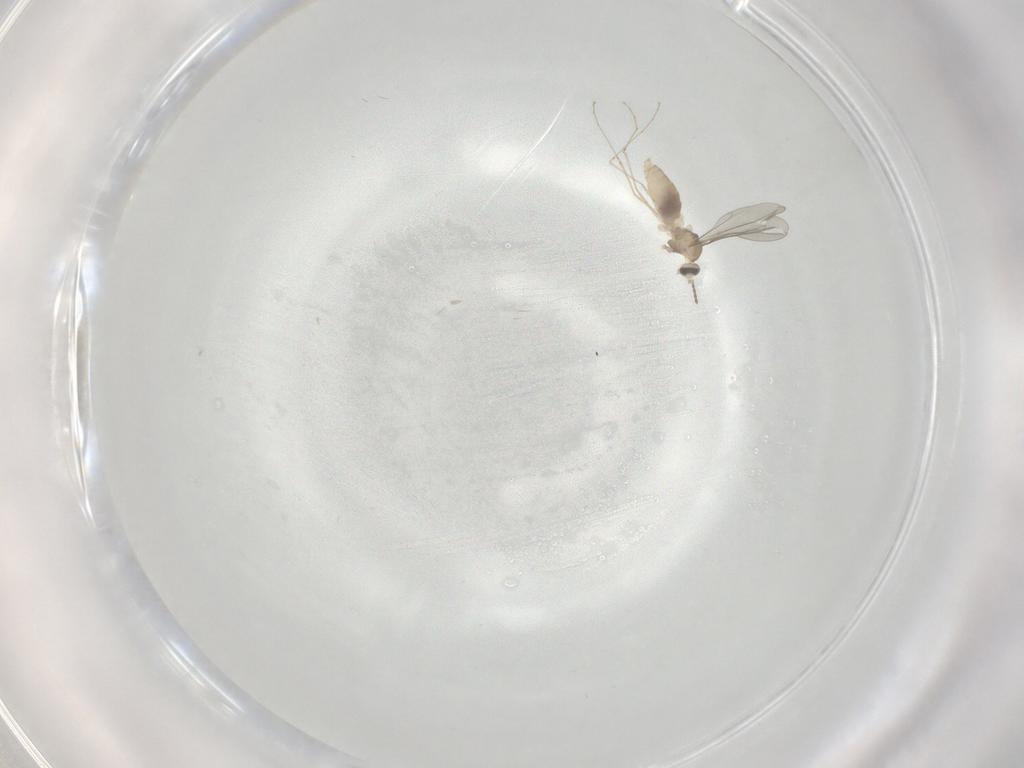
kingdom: Animalia
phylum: Arthropoda
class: Insecta
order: Diptera
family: Cecidomyiidae
